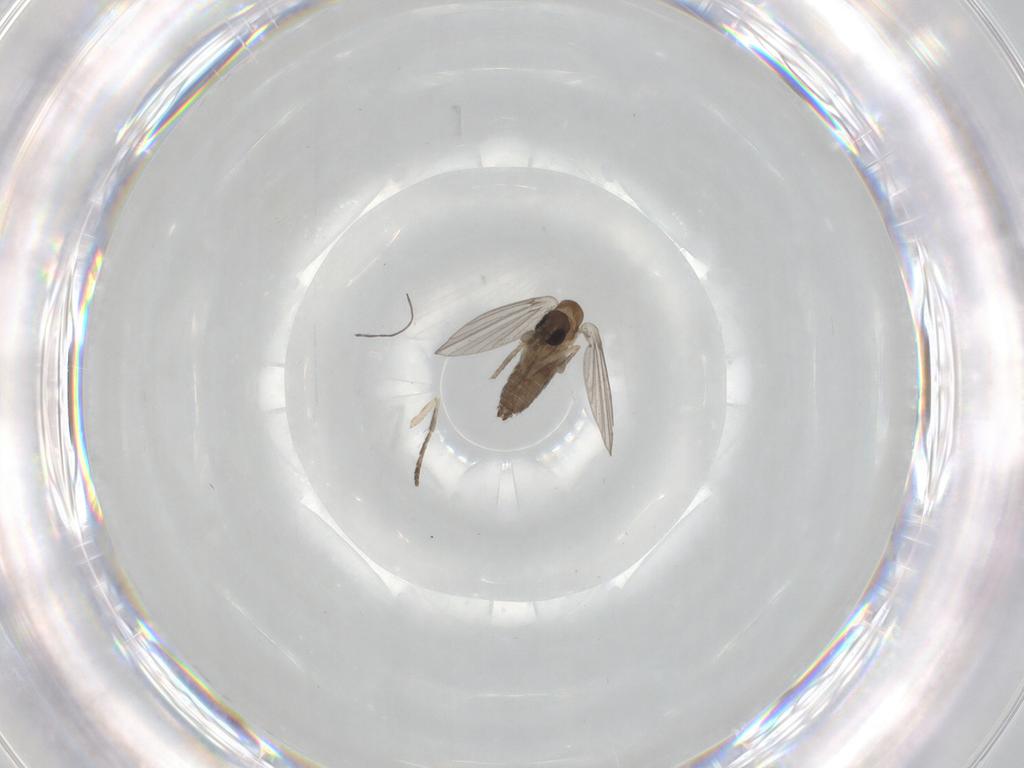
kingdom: Animalia
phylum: Arthropoda
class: Insecta
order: Diptera
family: Psychodidae
